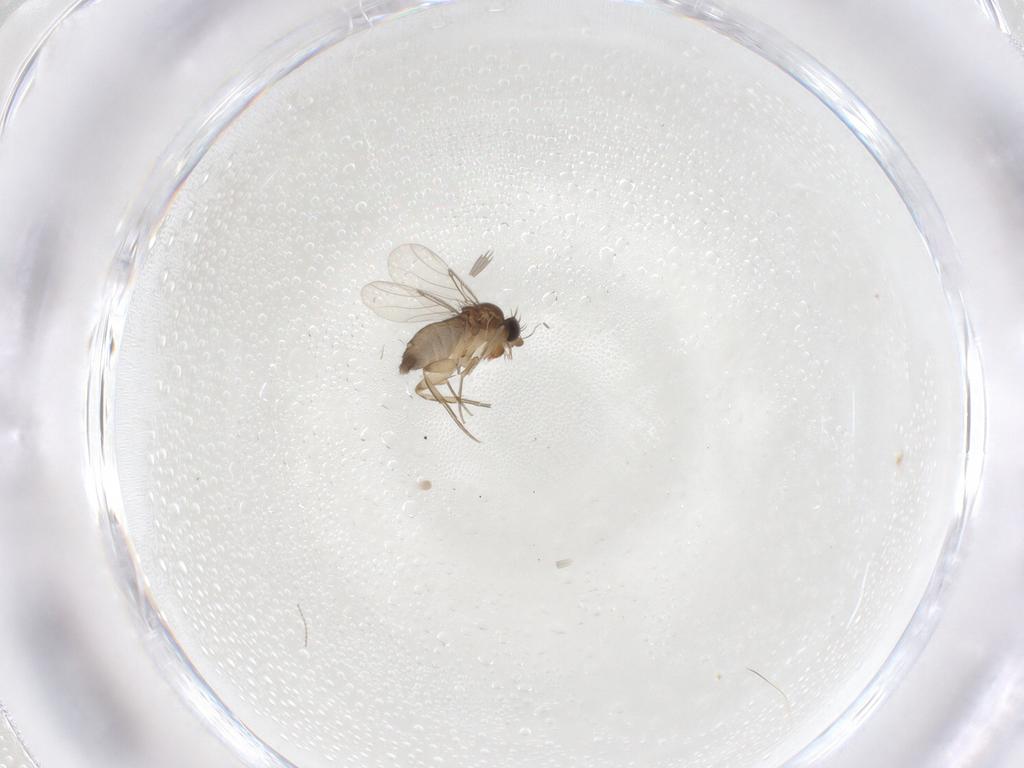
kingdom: Animalia
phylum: Arthropoda
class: Insecta
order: Diptera
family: Phoridae
